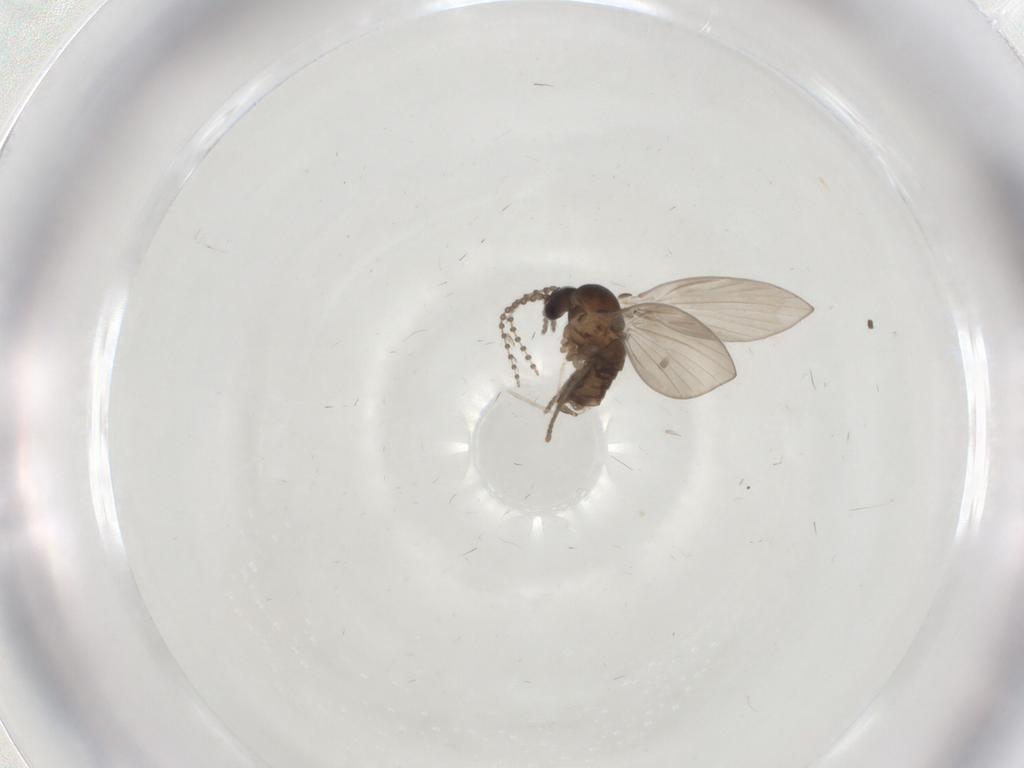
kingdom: Animalia
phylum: Arthropoda
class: Insecta
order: Diptera
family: Psychodidae
